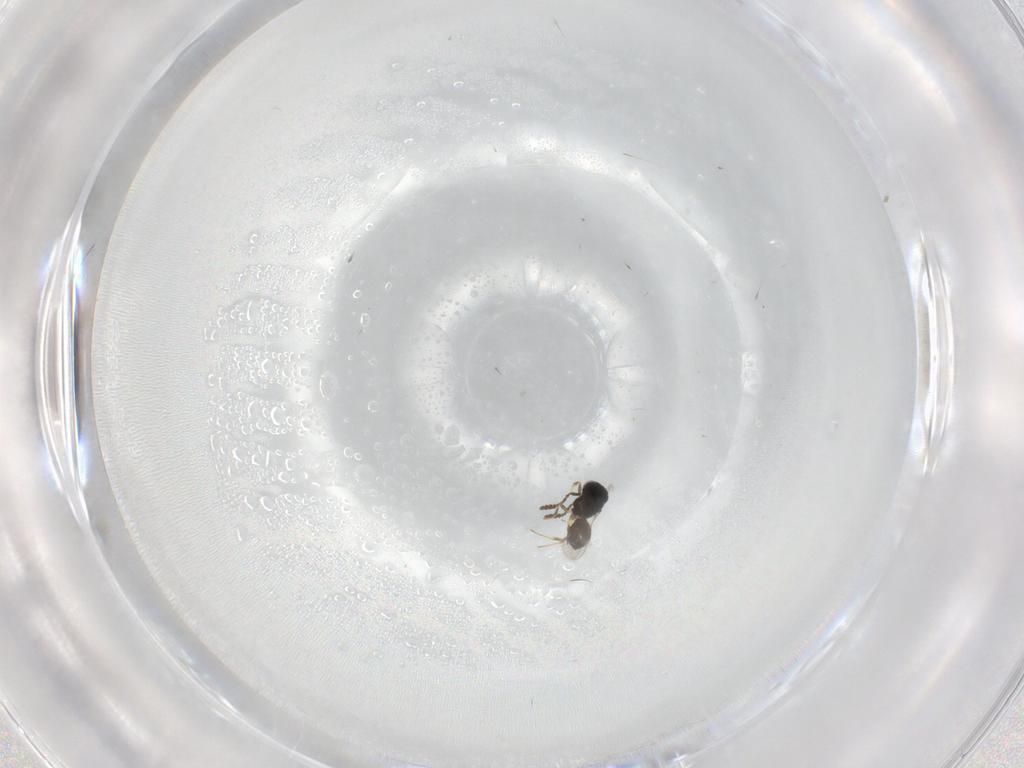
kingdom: Animalia
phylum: Arthropoda
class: Insecta
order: Hymenoptera
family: Scelionidae
